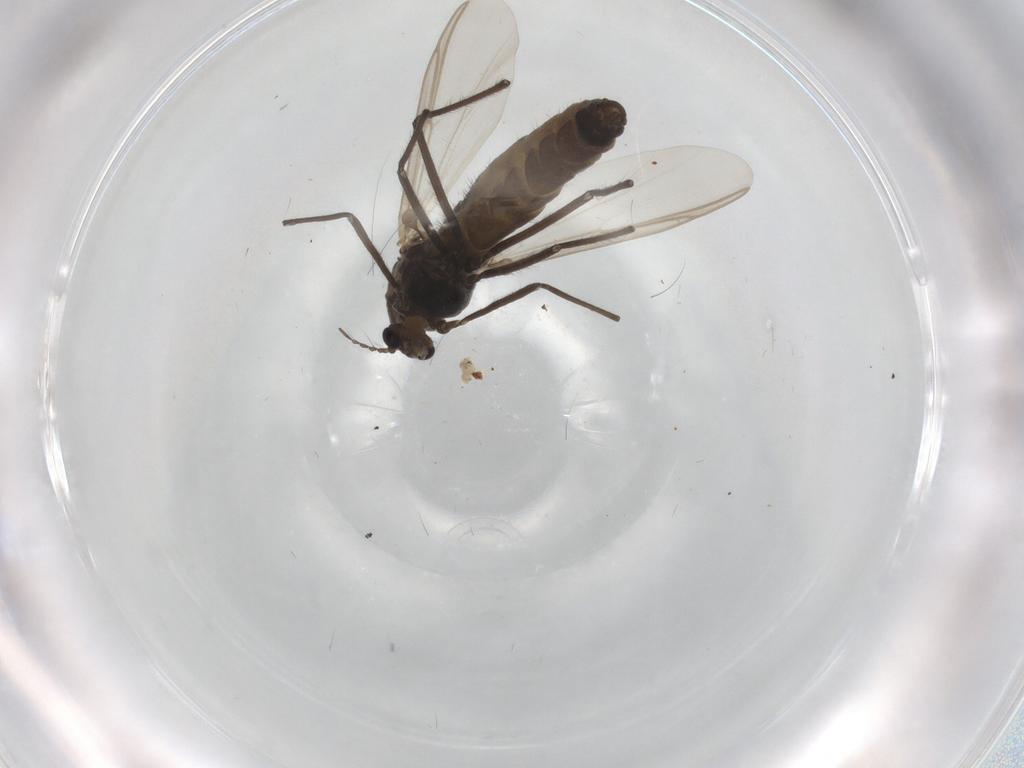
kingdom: Animalia
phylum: Arthropoda
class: Insecta
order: Diptera
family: Chironomidae
